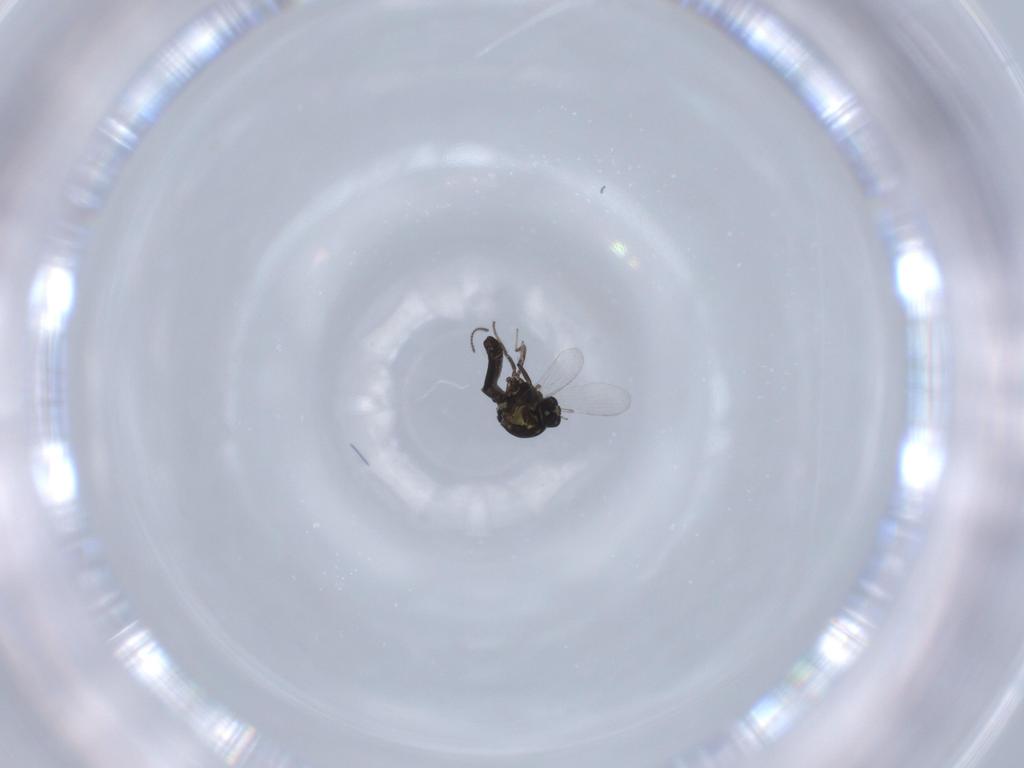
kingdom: Animalia
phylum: Arthropoda
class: Insecta
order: Diptera
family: Ceratopogonidae
